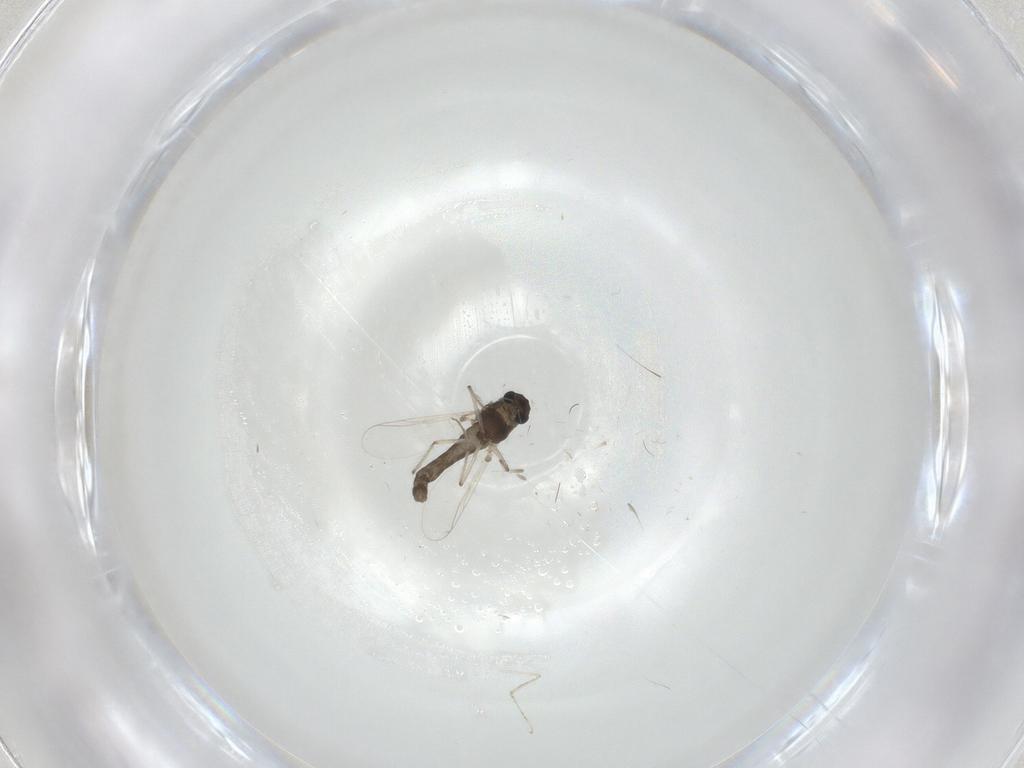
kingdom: Animalia
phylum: Arthropoda
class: Insecta
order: Diptera
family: Chironomidae
